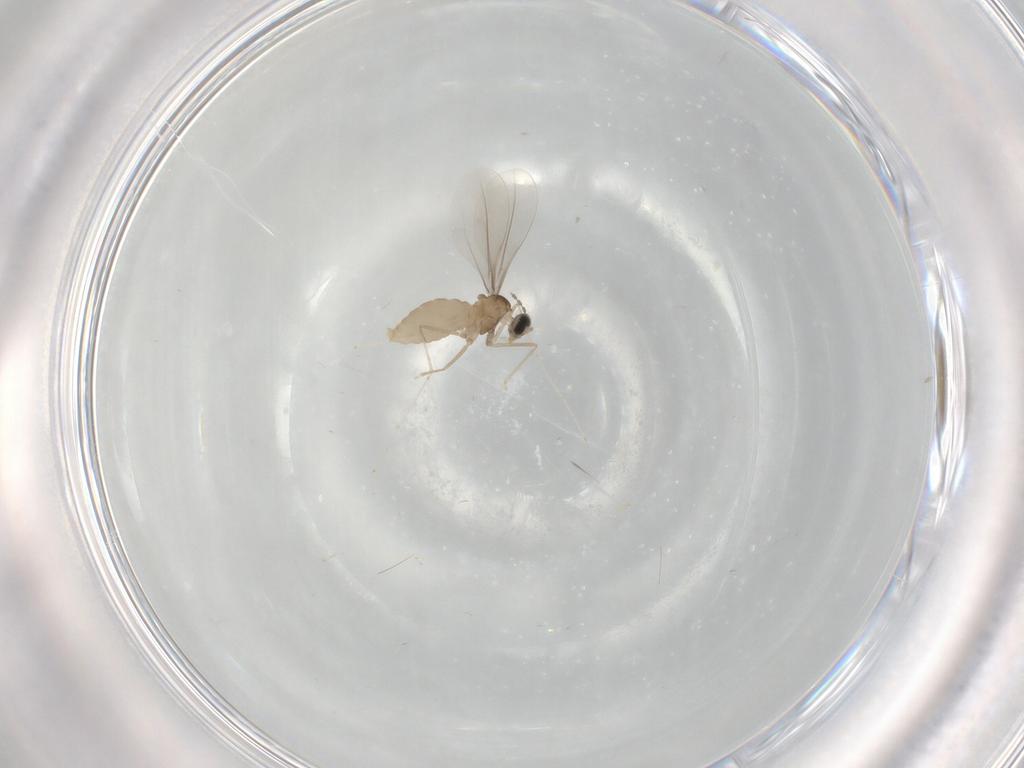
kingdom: Animalia
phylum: Arthropoda
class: Insecta
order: Diptera
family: Cecidomyiidae
